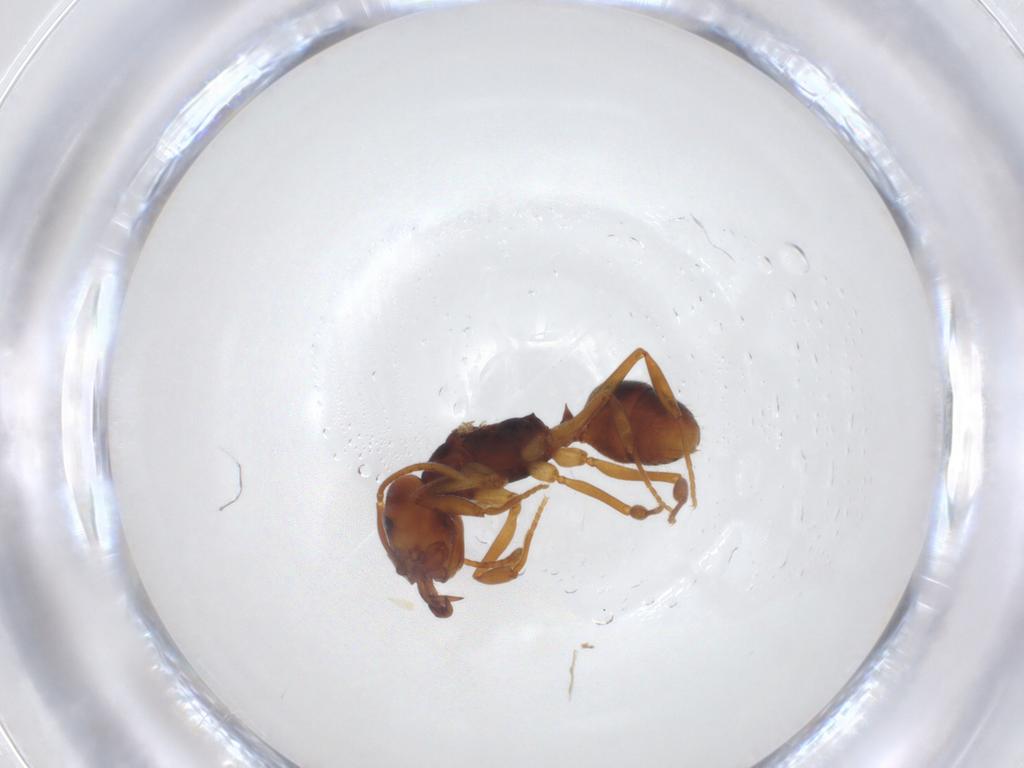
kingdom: Animalia
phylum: Arthropoda
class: Insecta
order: Hymenoptera
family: Formicidae
